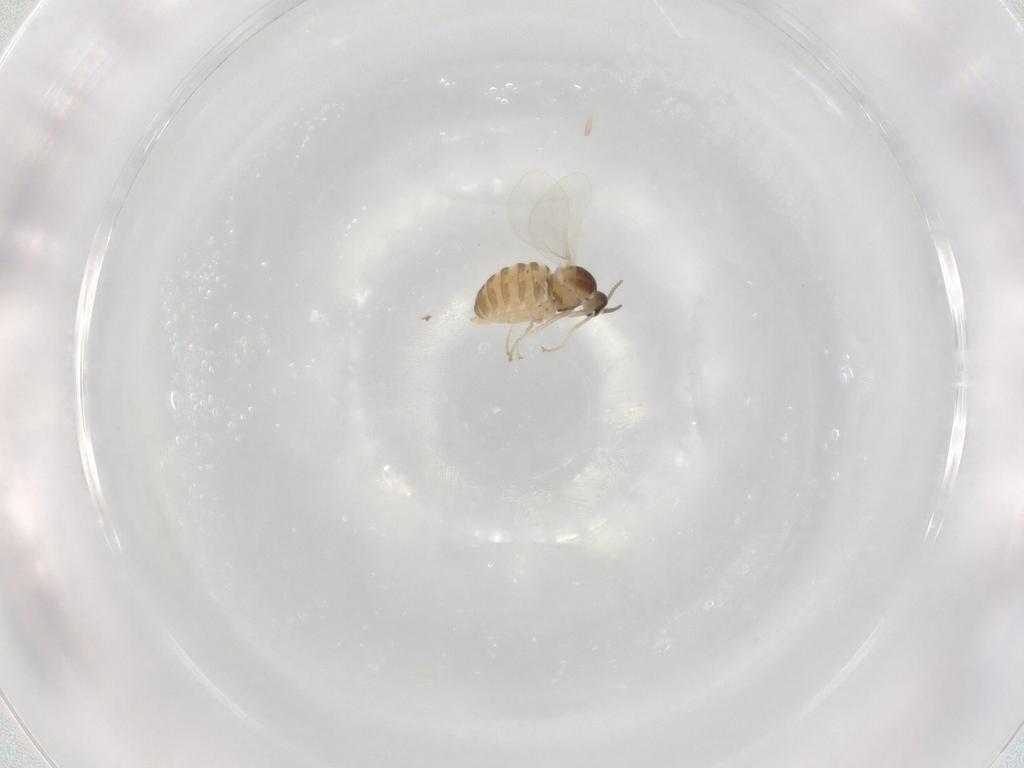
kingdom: Animalia
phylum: Arthropoda
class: Insecta
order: Diptera
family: Cecidomyiidae
